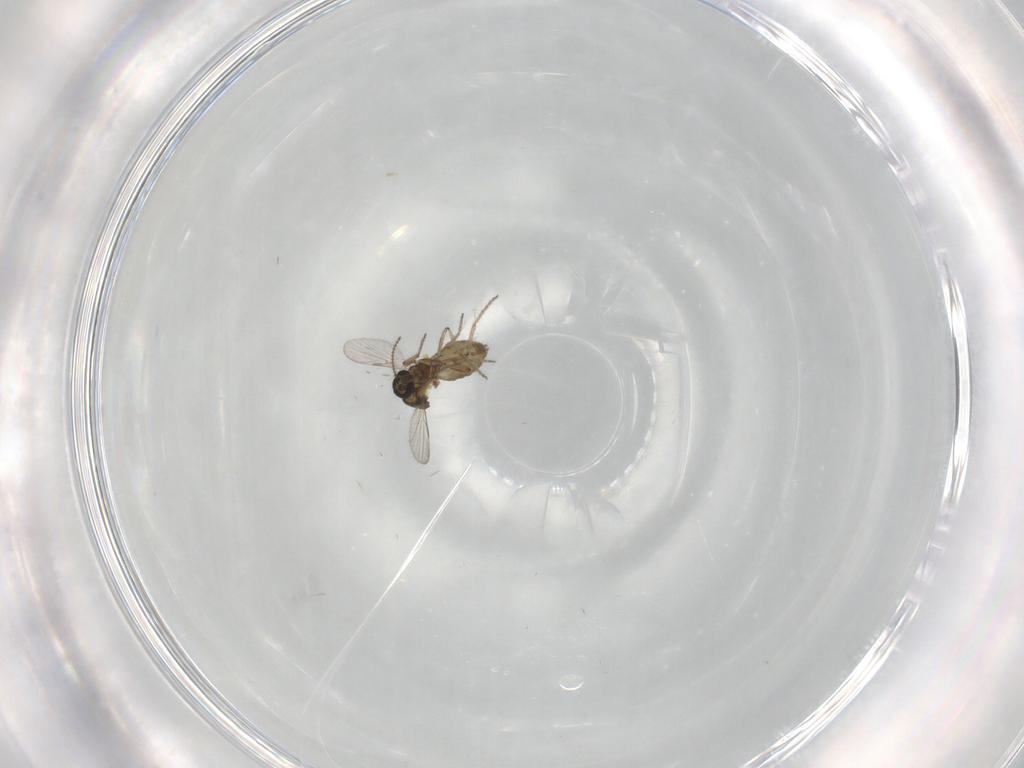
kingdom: Animalia
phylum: Arthropoda
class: Insecta
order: Diptera
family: Ceratopogonidae
